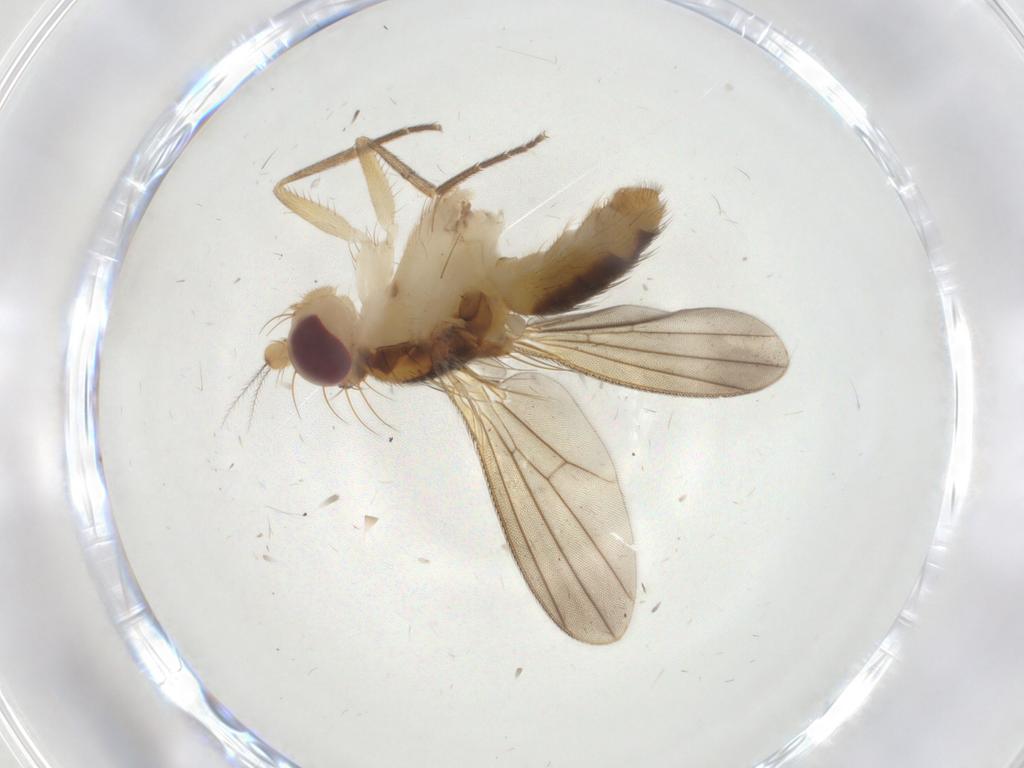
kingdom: Animalia
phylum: Arthropoda
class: Insecta
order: Diptera
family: Clusiidae
